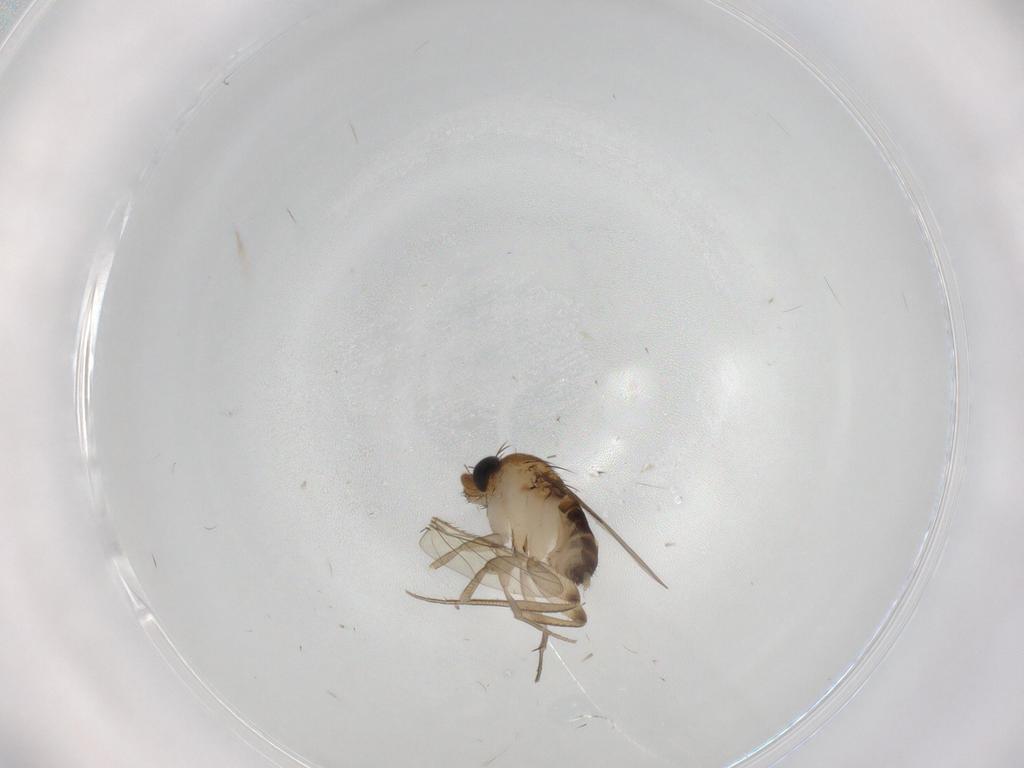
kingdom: Animalia
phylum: Arthropoda
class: Insecta
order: Diptera
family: Phoridae
